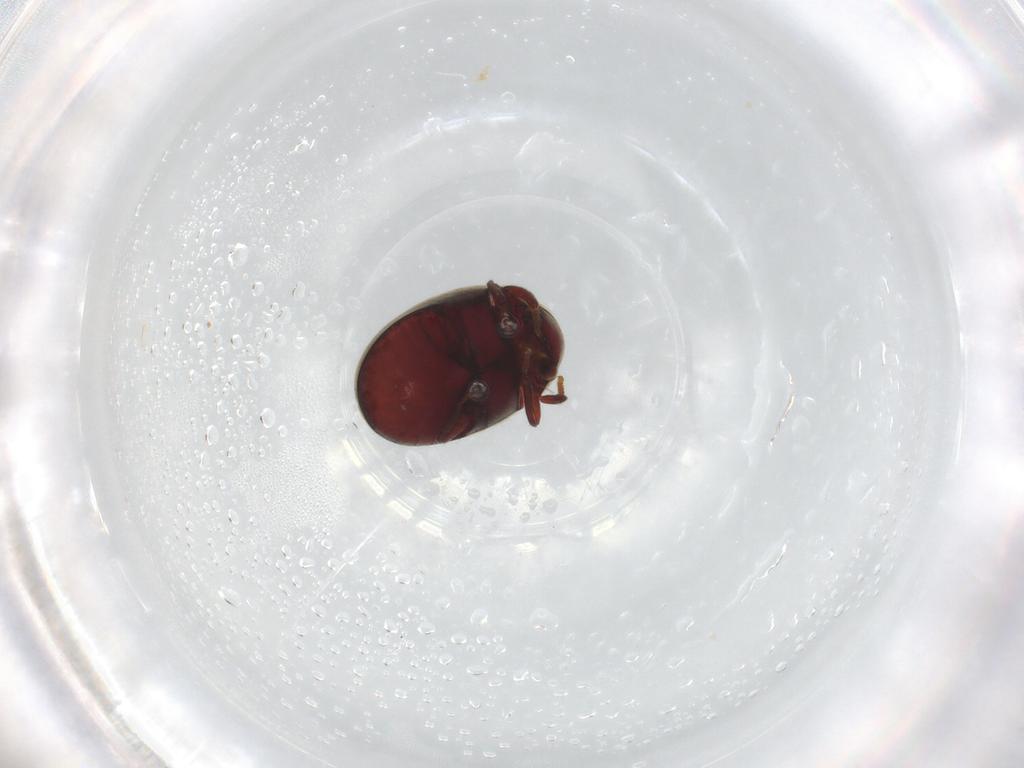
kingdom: Animalia
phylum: Arthropoda
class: Insecta
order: Coleoptera
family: Ptinidae
